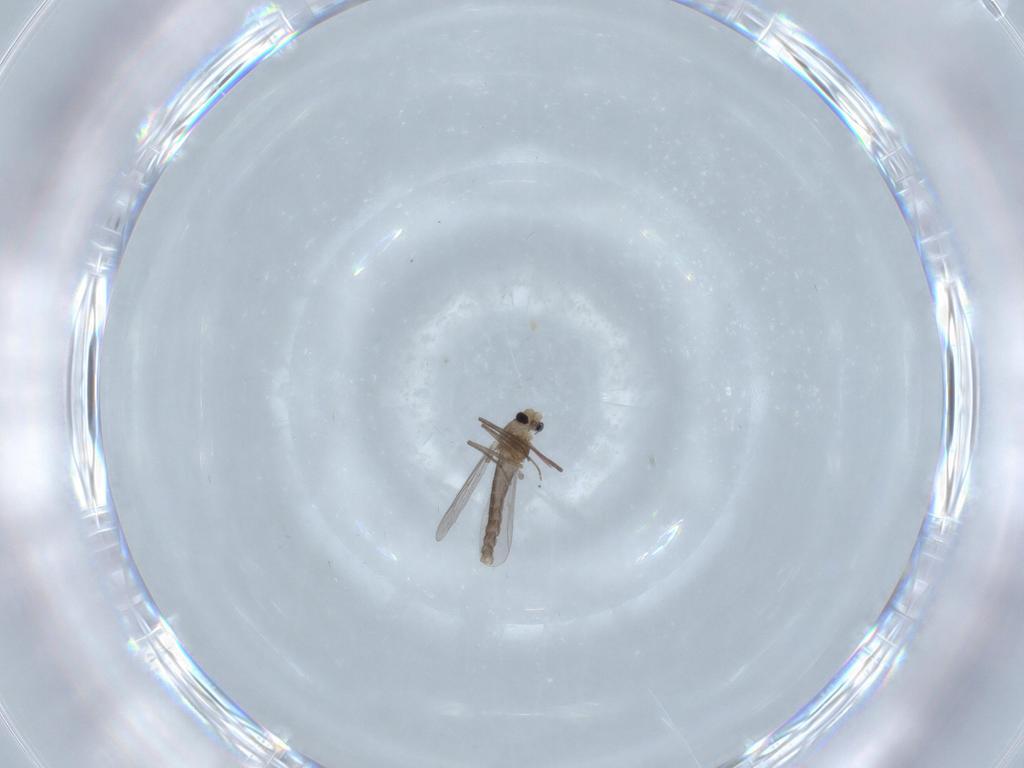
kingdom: Animalia
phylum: Arthropoda
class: Insecta
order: Diptera
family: Phoridae
